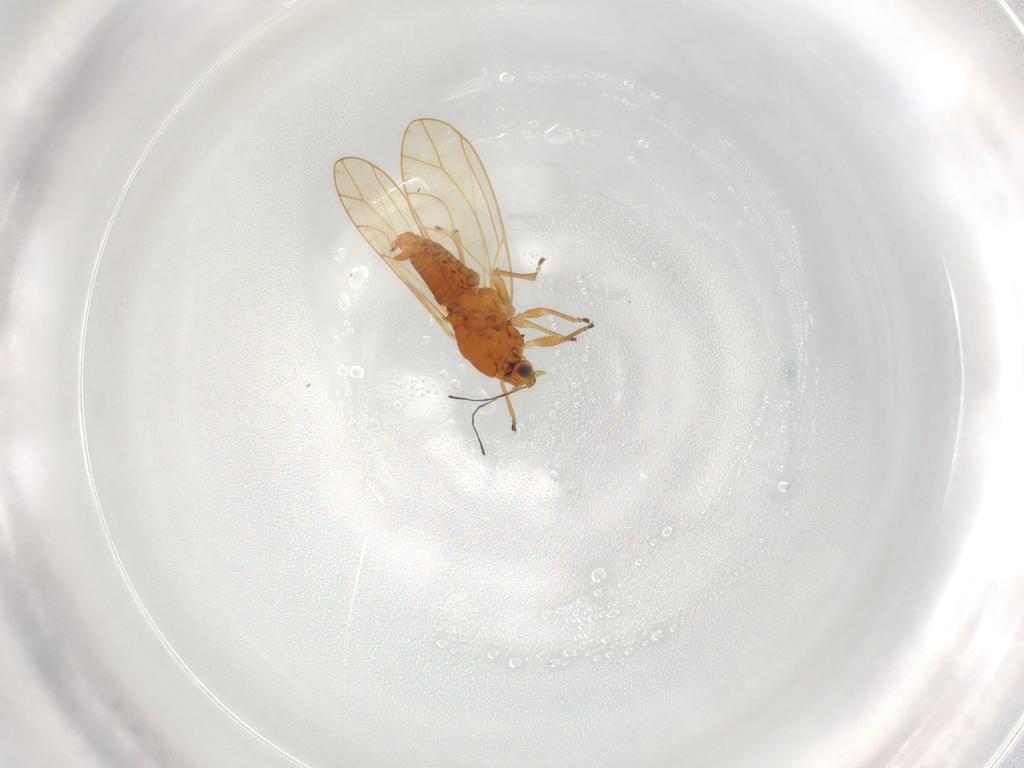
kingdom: Animalia
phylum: Arthropoda
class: Insecta
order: Hemiptera
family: Triozidae
